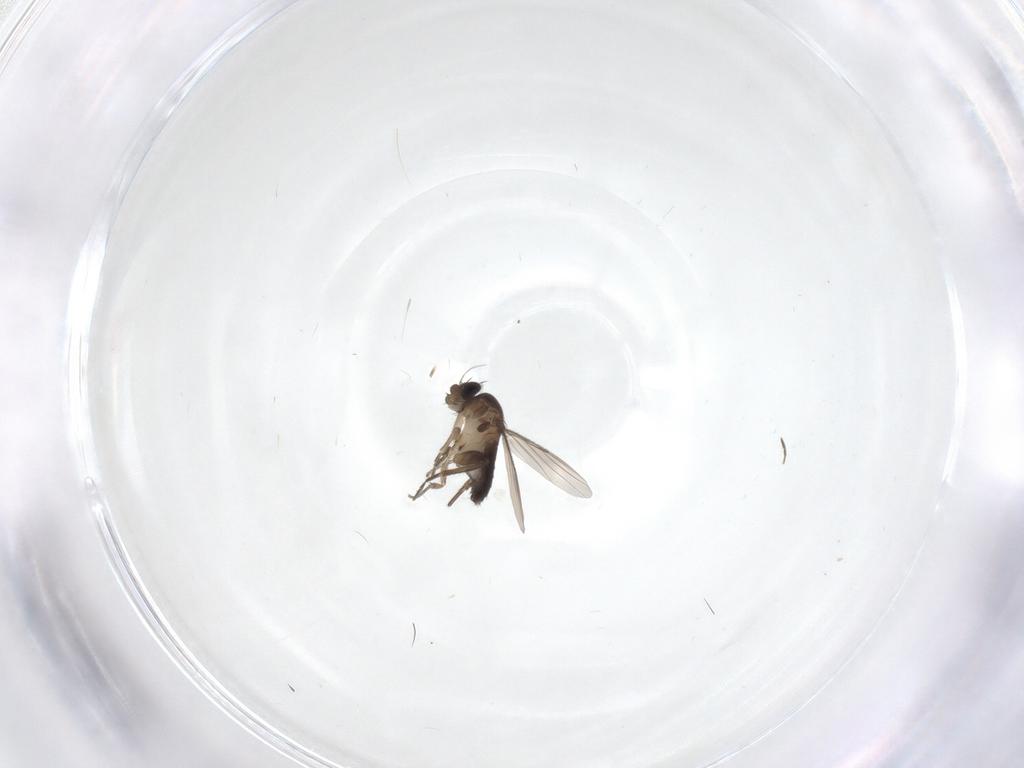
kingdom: Animalia
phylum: Arthropoda
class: Insecta
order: Diptera
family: Phoridae
